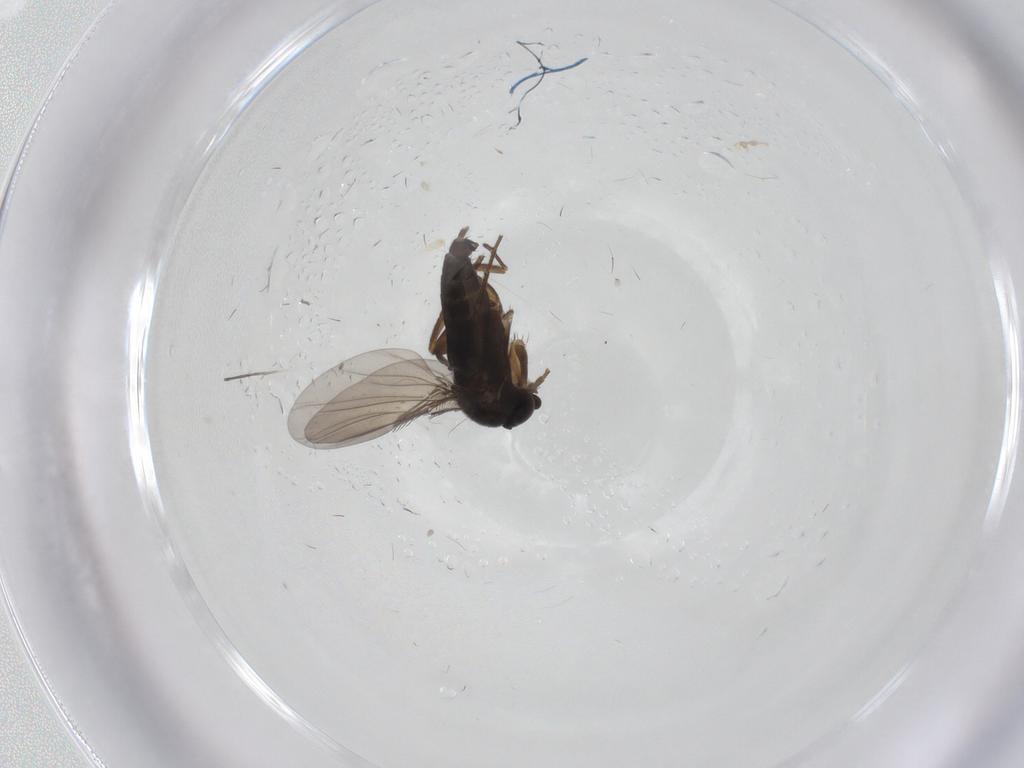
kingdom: Animalia
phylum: Arthropoda
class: Insecta
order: Diptera
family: Phoridae
